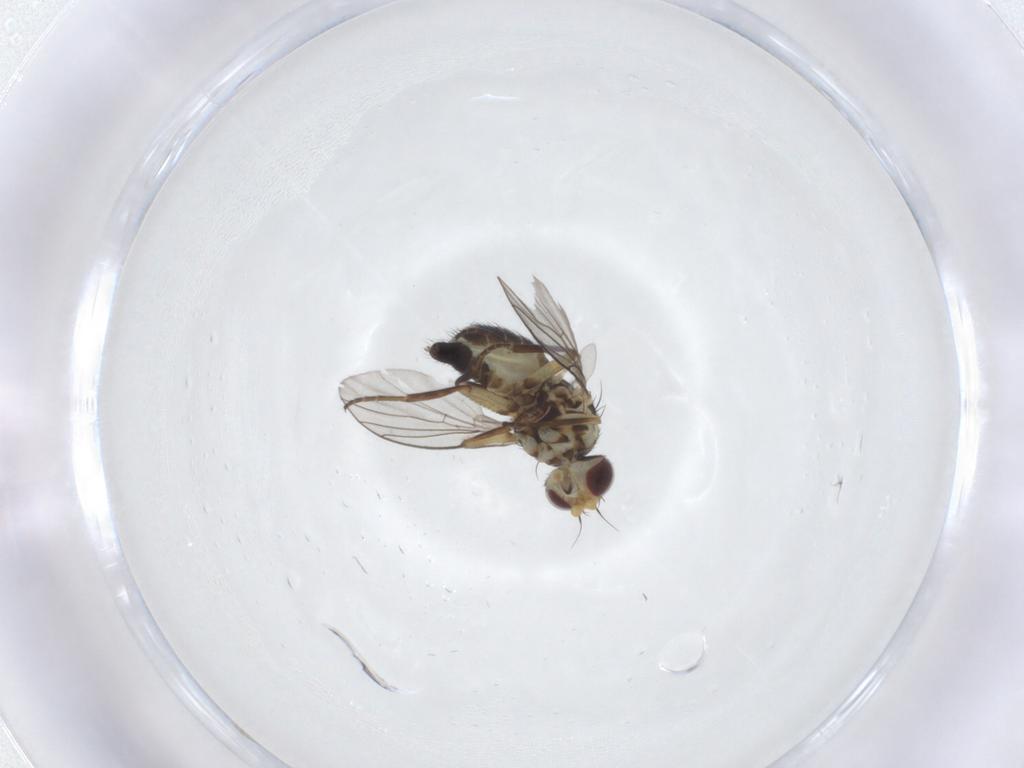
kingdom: Animalia
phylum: Arthropoda
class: Insecta
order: Diptera
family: Agromyzidae
